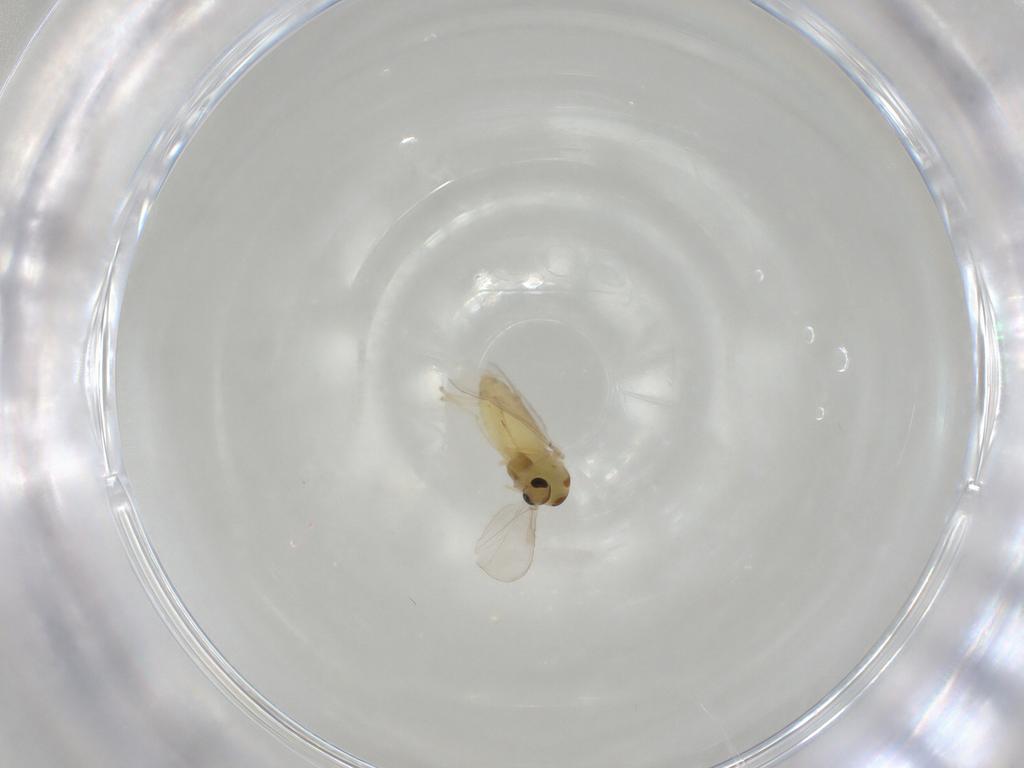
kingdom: Animalia
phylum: Arthropoda
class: Insecta
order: Diptera
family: Chironomidae
